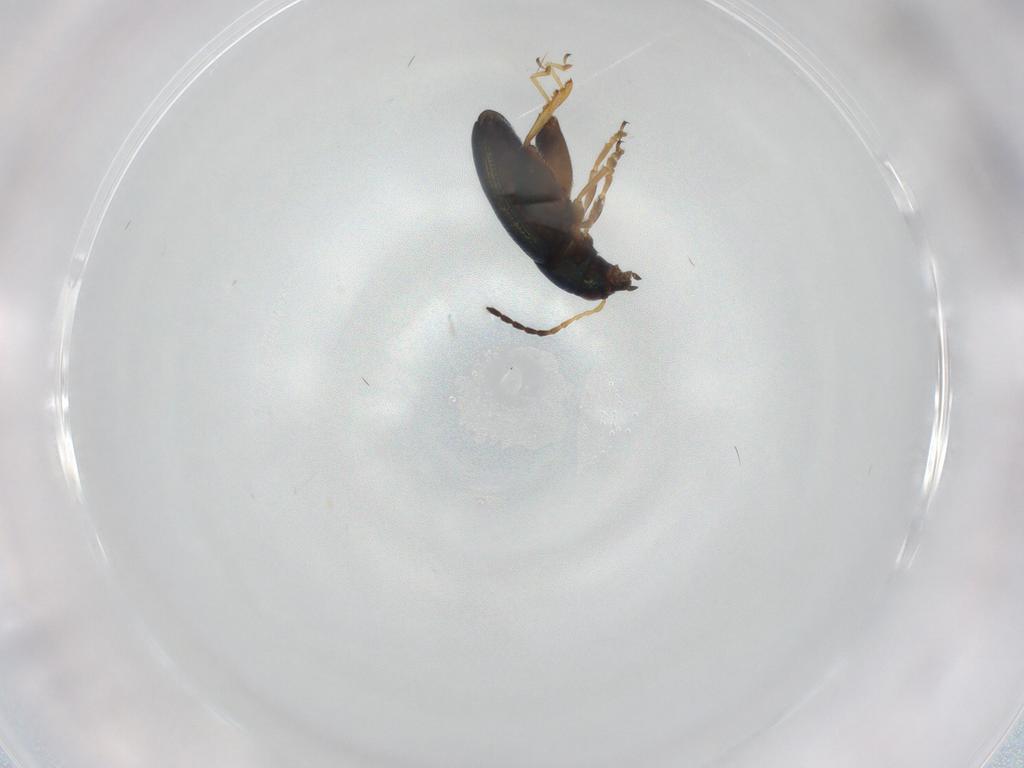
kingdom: Animalia
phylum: Arthropoda
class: Insecta
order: Coleoptera
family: Chrysomelidae
